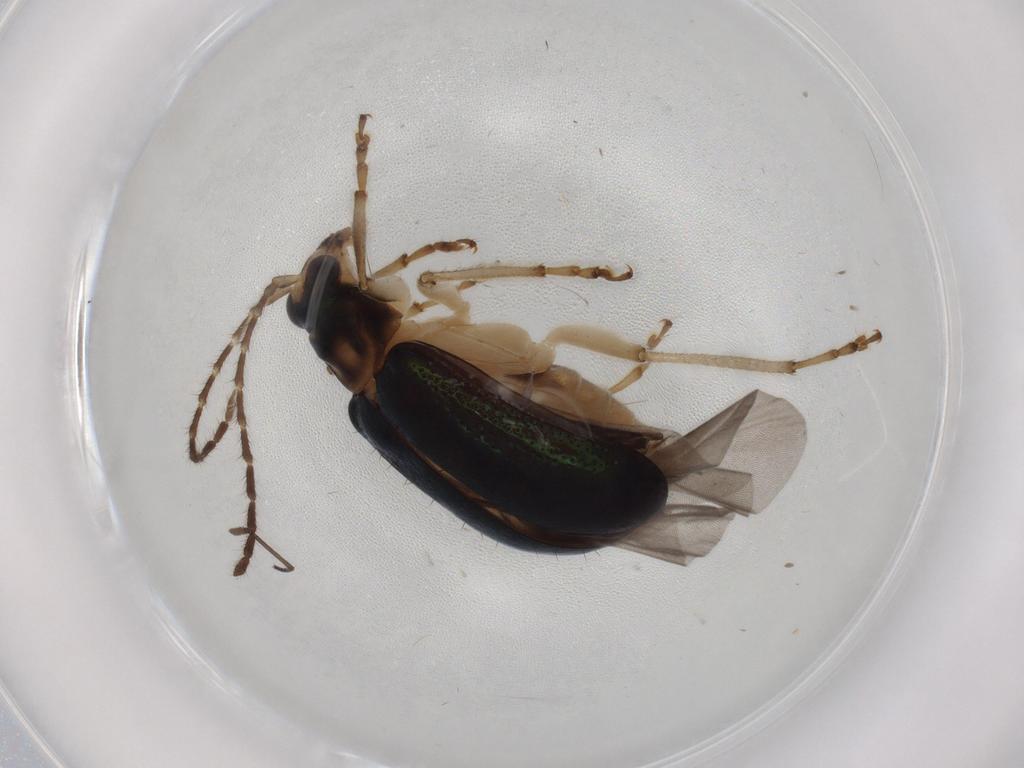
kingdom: Animalia
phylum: Arthropoda
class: Insecta
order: Coleoptera
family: Chrysomelidae
